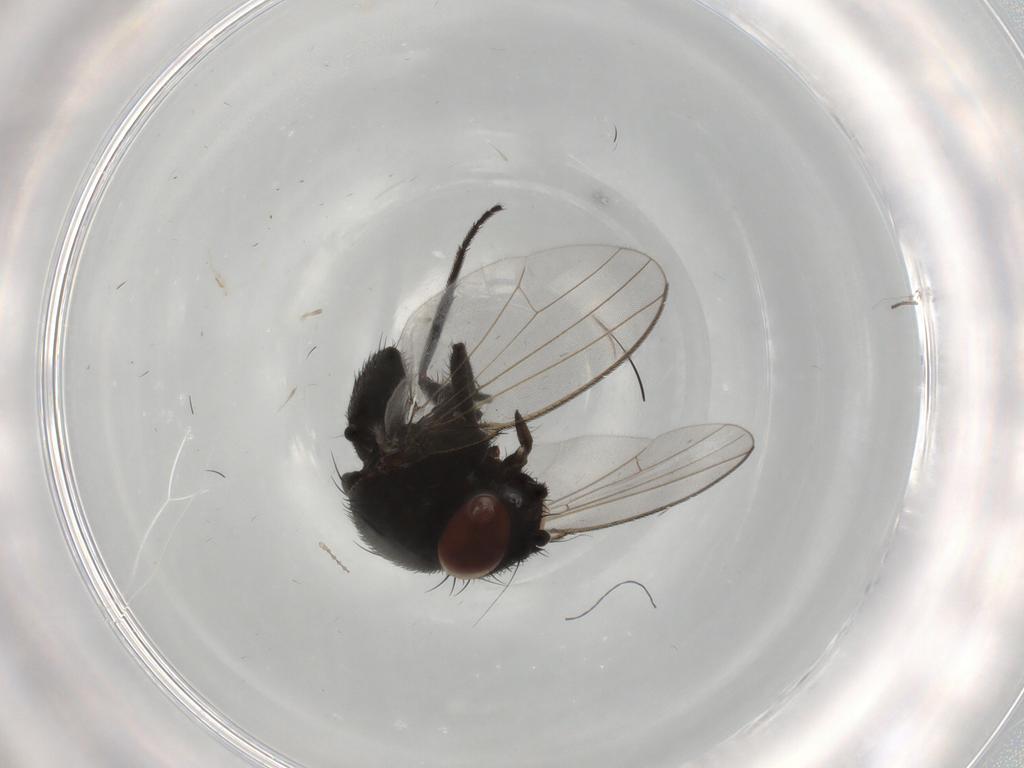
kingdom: Animalia
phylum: Arthropoda
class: Insecta
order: Diptera
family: Milichiidae
